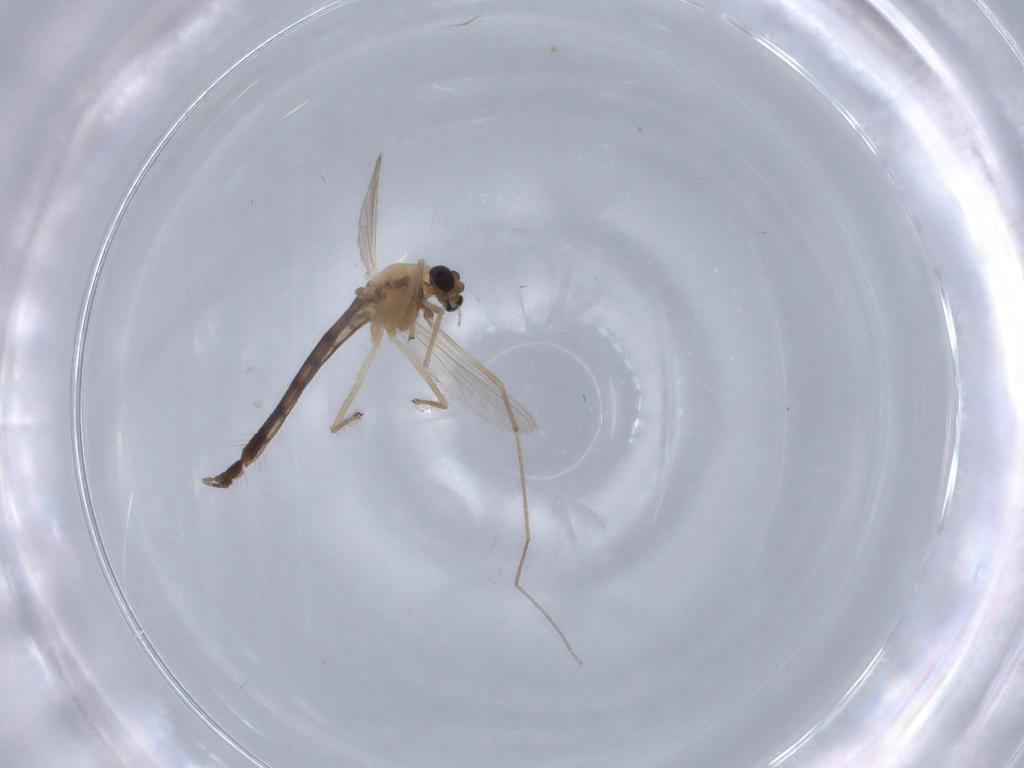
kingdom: Animalia
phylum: Arthropoda
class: Insecta
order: Diptera
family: Chironomidae
